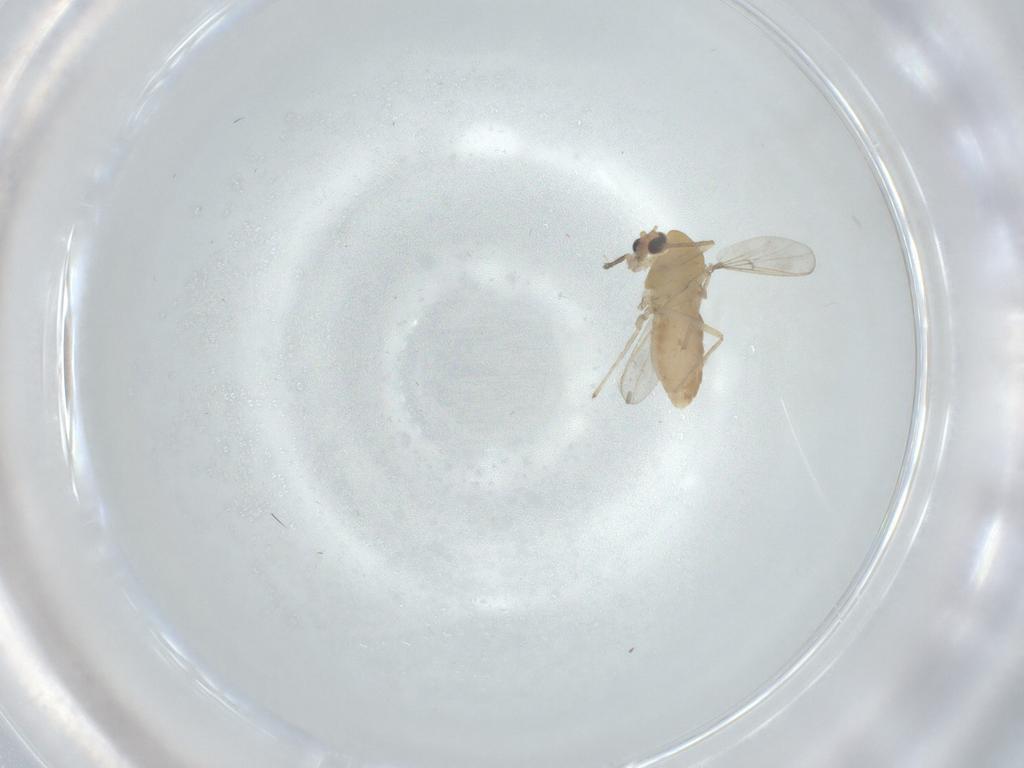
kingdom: Animalia
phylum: Arthropoda
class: Insecta
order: Diptera
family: Chironomidae
